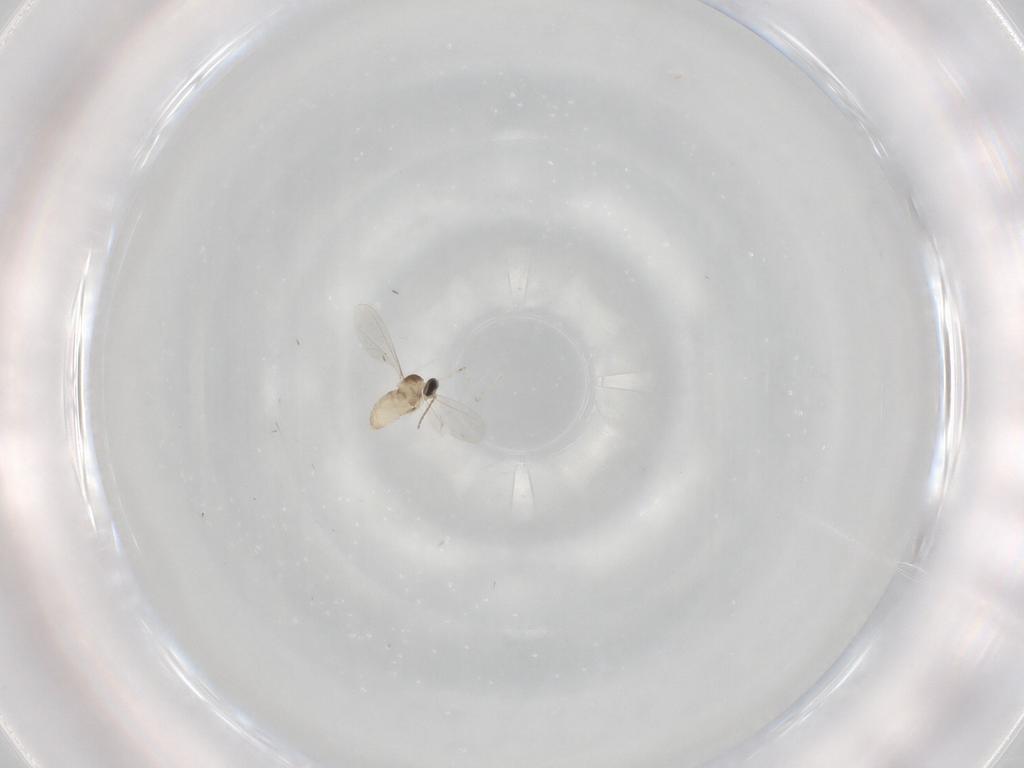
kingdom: Animalia
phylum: Arthropoda
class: Insecta
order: Diptera
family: Cecidomyiidae
